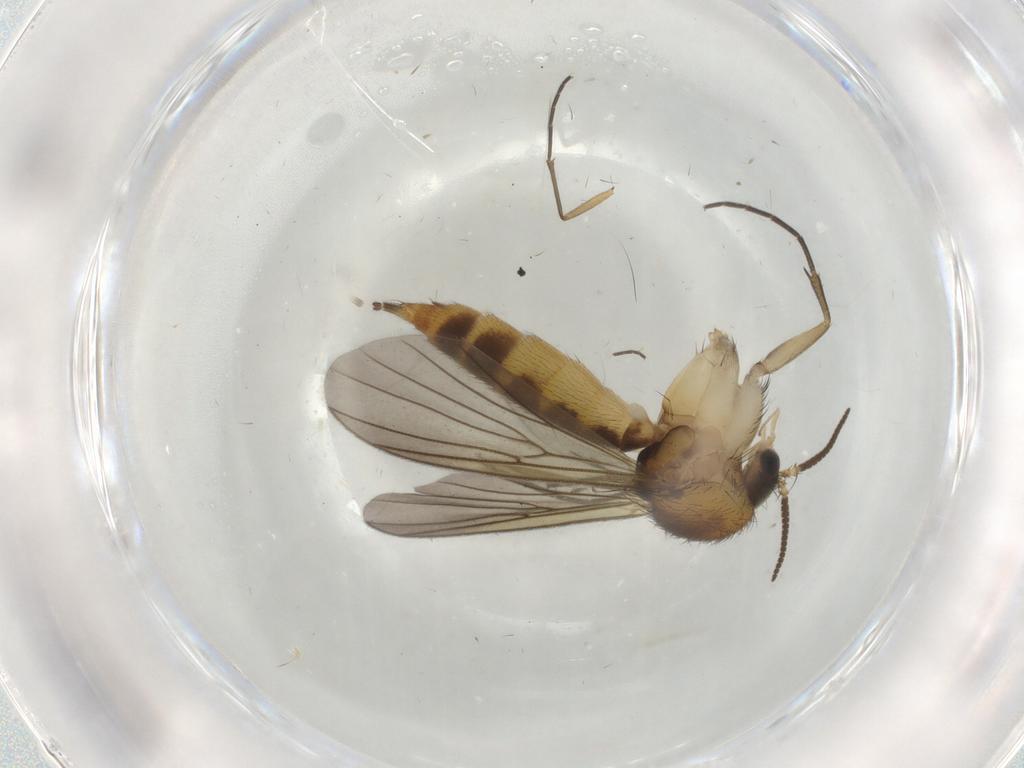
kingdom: Animalia
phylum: Arthropoda
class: Insecta
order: Diptera
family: Mycetophilidae
